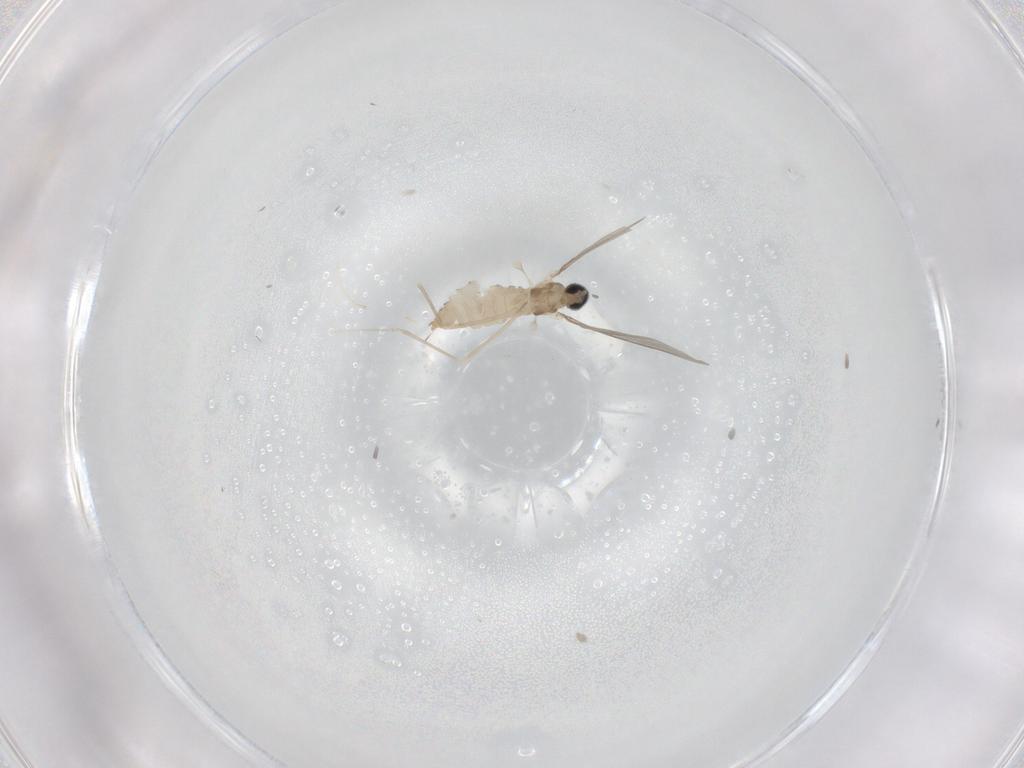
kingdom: Animalia
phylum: Arthropoda
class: Insecta
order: Diptera
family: Cecidomyiidae
